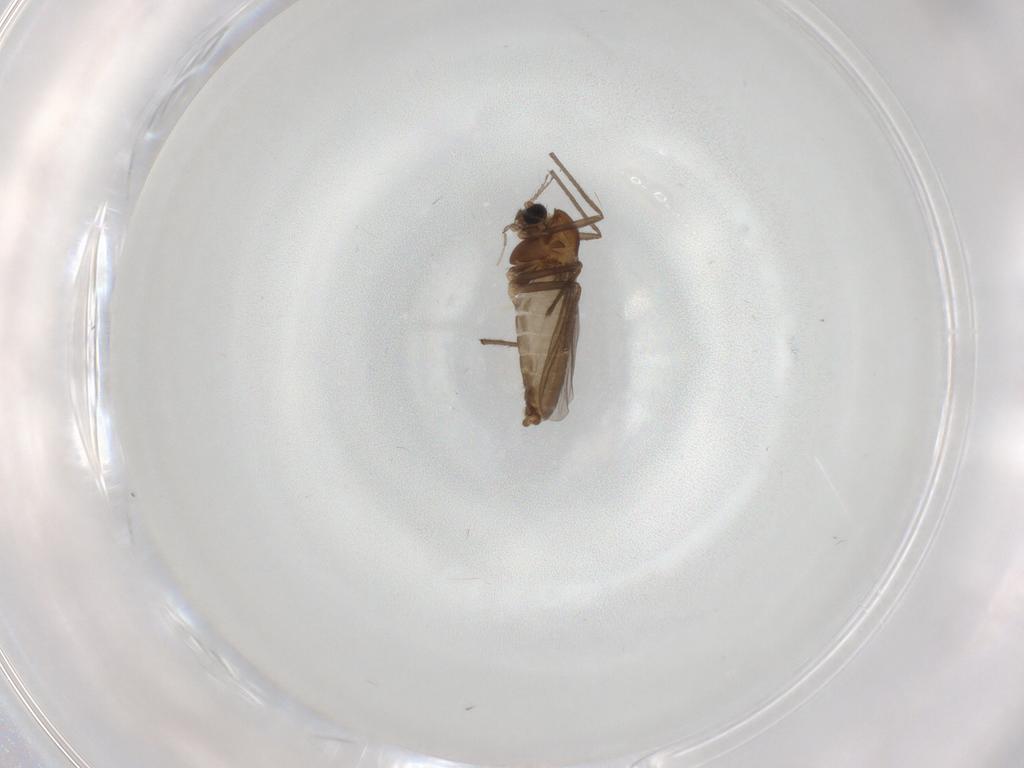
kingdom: Animalia
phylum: Arthropoda
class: Insecta
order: Diptera
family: Chironomidae
